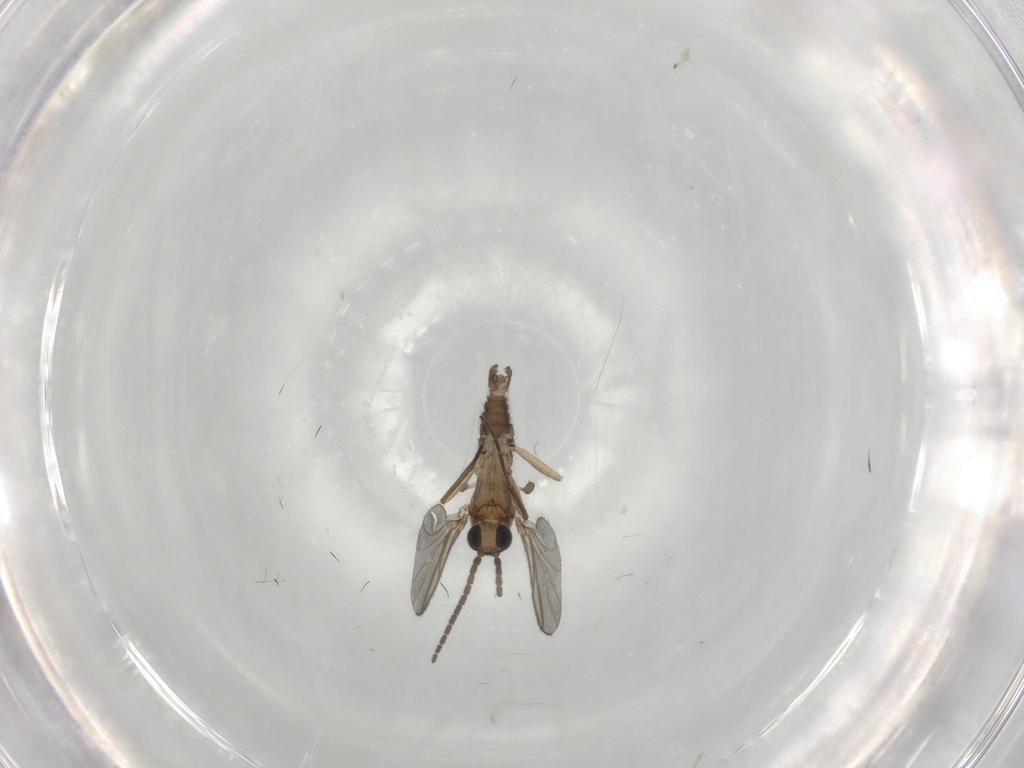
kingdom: Animalia
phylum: Arthropoda
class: Insecta
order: Diptera
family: Sciaridae
